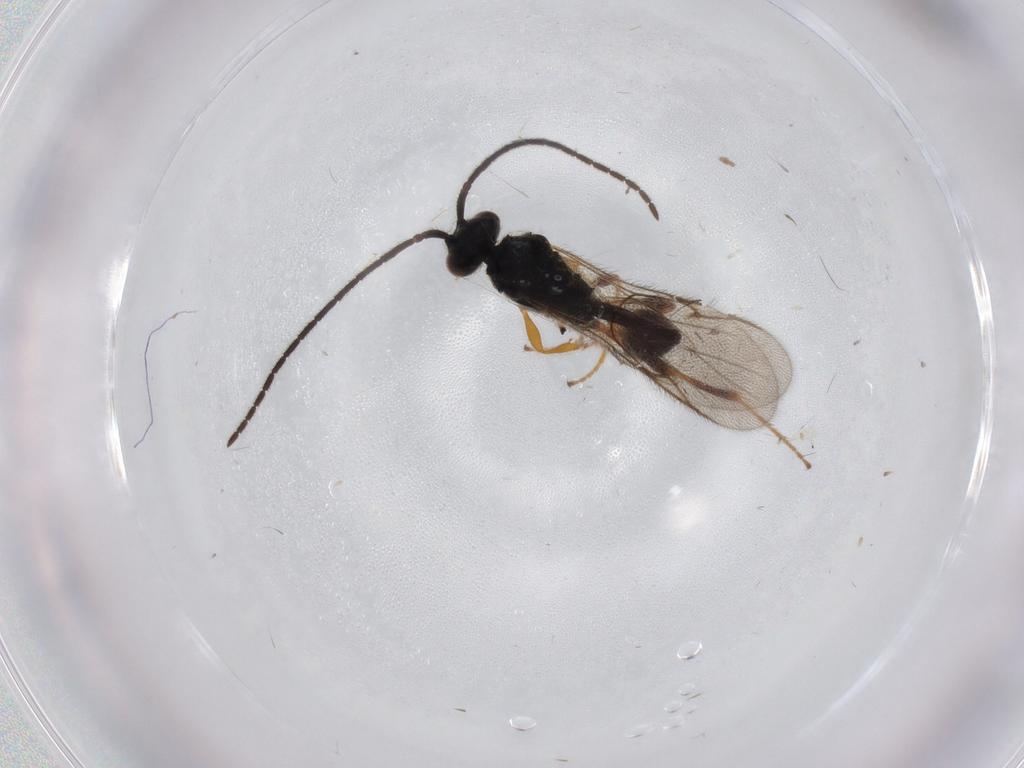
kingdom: Animalia
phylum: Arthropoda
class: Insecta
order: Hymenoptera
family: Diapriidae
